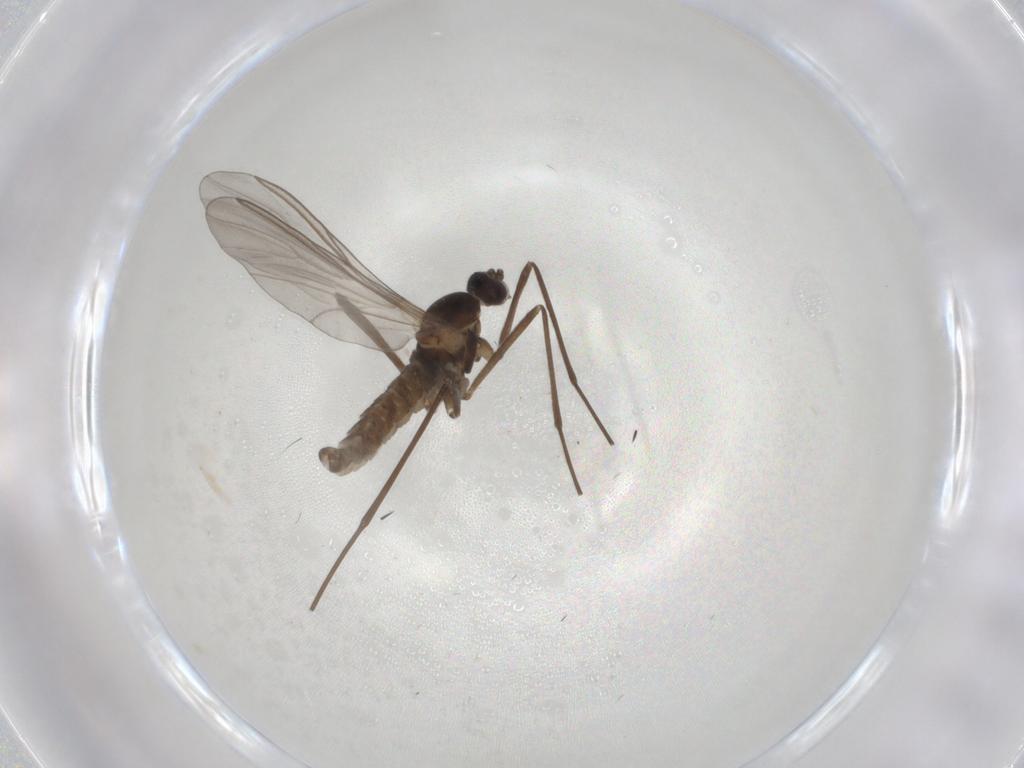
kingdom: Animalia
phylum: Arthropoda
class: Insecta
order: Diptera
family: Cecidomyiidae
